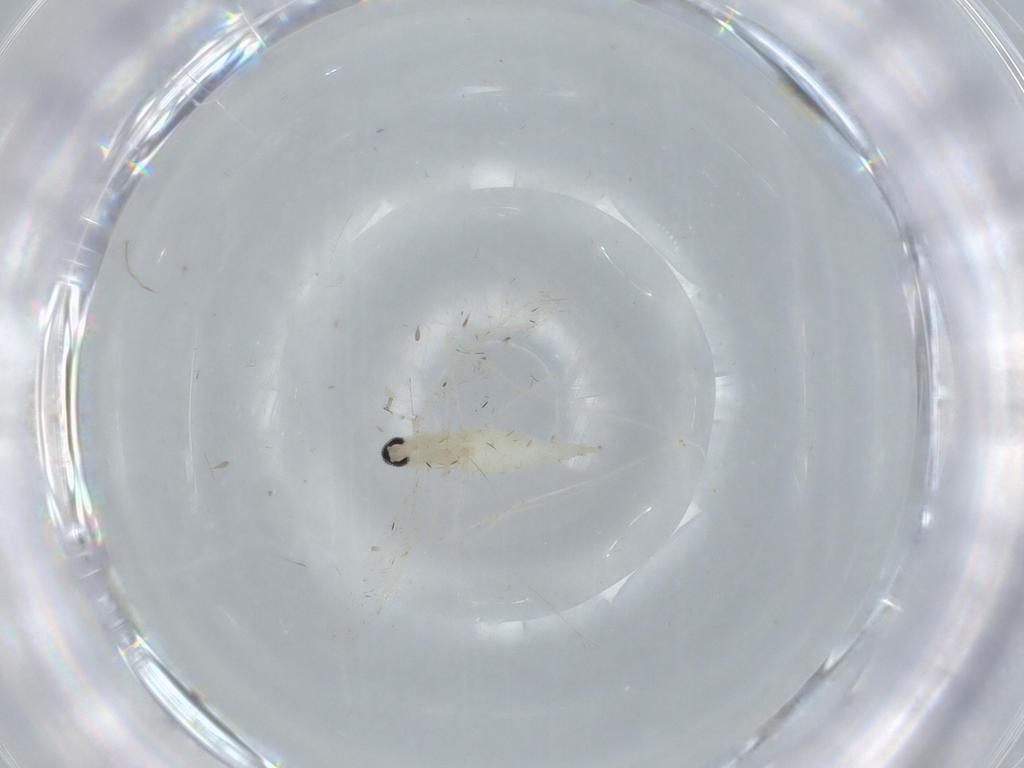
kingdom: Animalia
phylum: Arthropoda
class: Insecta
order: Diptera
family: Cecidomyiidae
